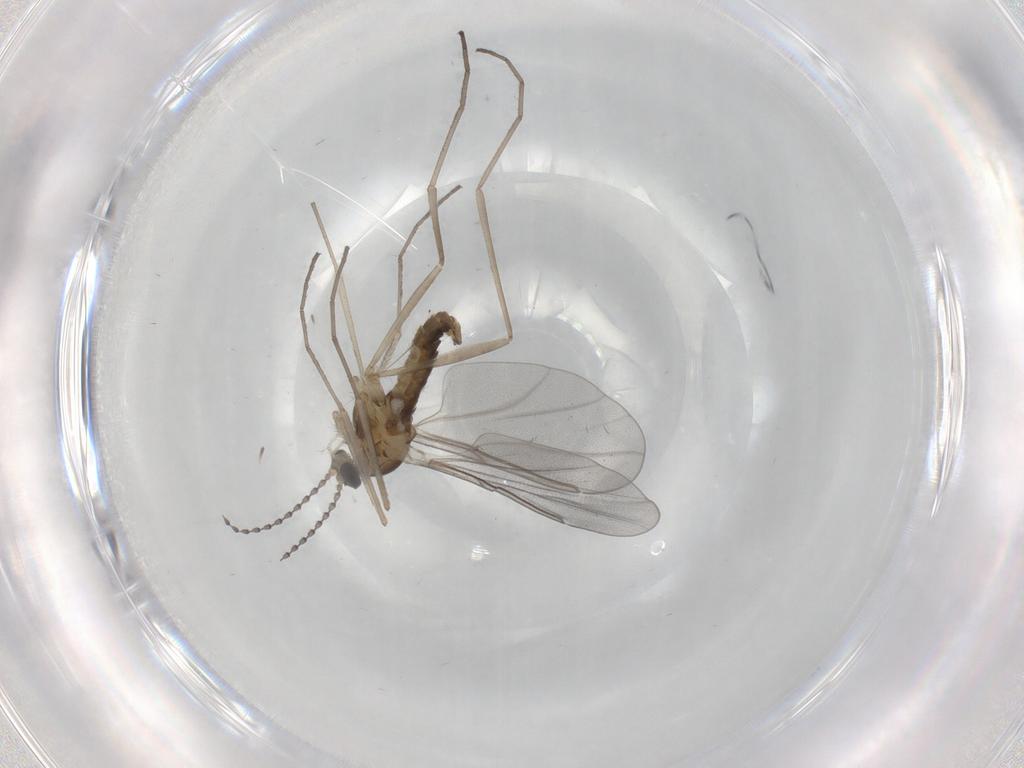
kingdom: Animalia
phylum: Arthropoda
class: Insecta
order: Diptera
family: Cecidomyiidae
